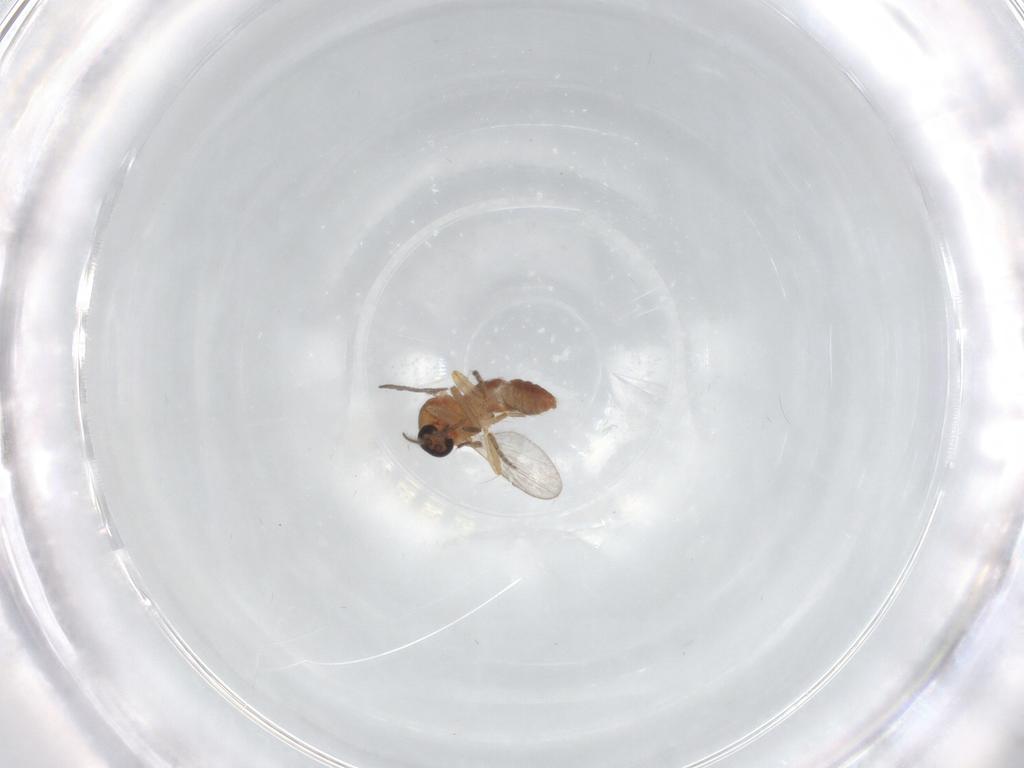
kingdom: Animalia
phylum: Arthropoda
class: Insecta
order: Diptera
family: Ceratopogonidae
